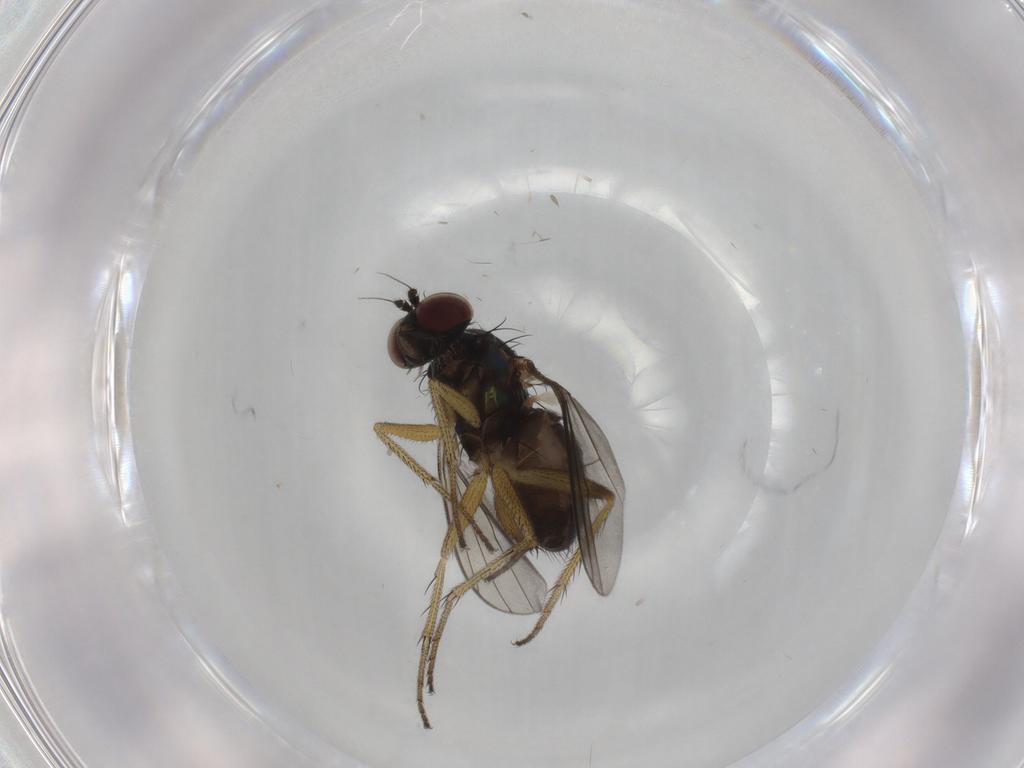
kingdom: Animalia
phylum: Arthropoda
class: Insecta
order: Diptera
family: Dolichopodidae
